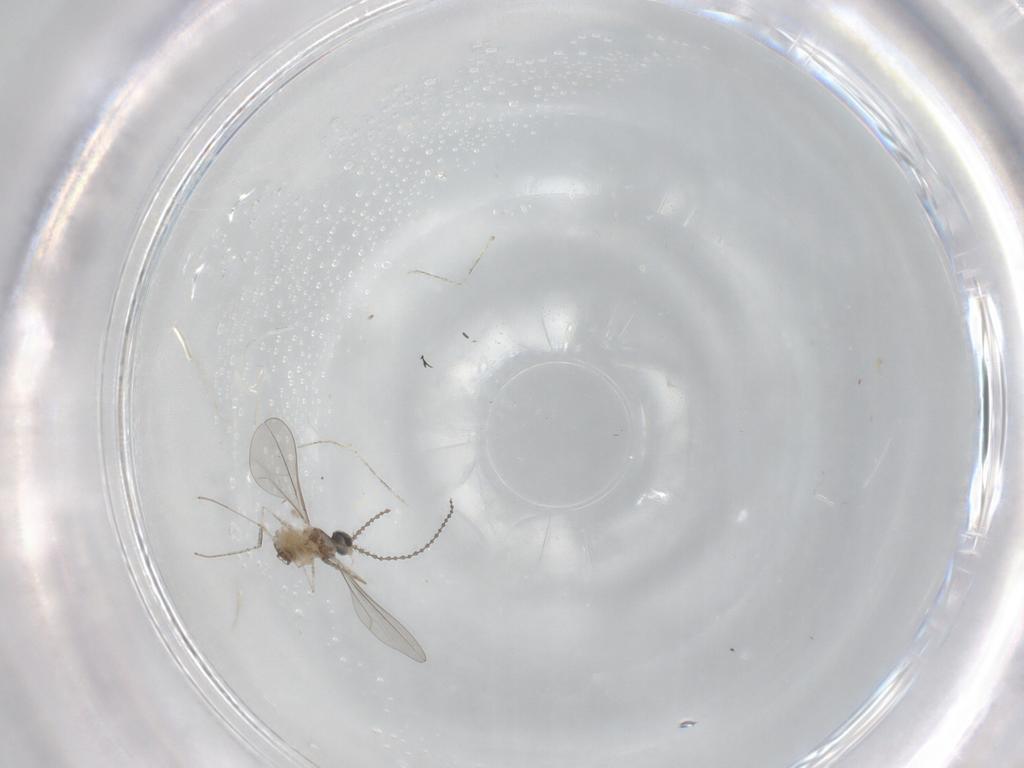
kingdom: Animalia
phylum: Arthropoda
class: Insecta
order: Diptera
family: Cecidomyiidae
